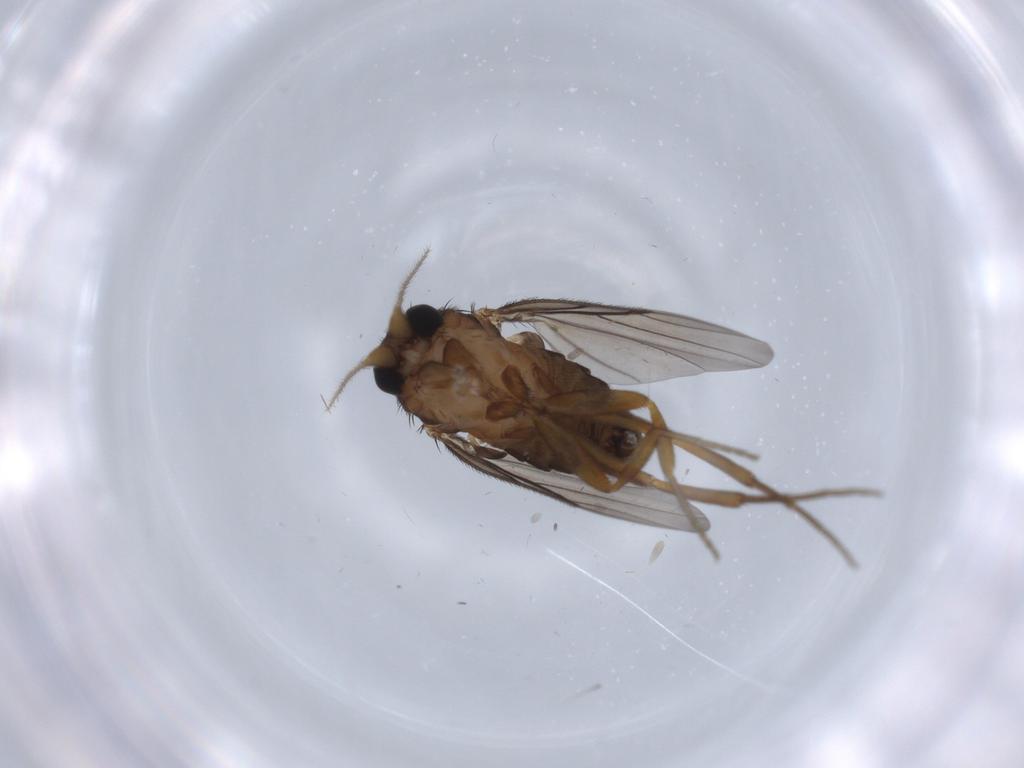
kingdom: Animalia
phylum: Arthropoda
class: Insecta
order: Diptera
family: Phoridae
